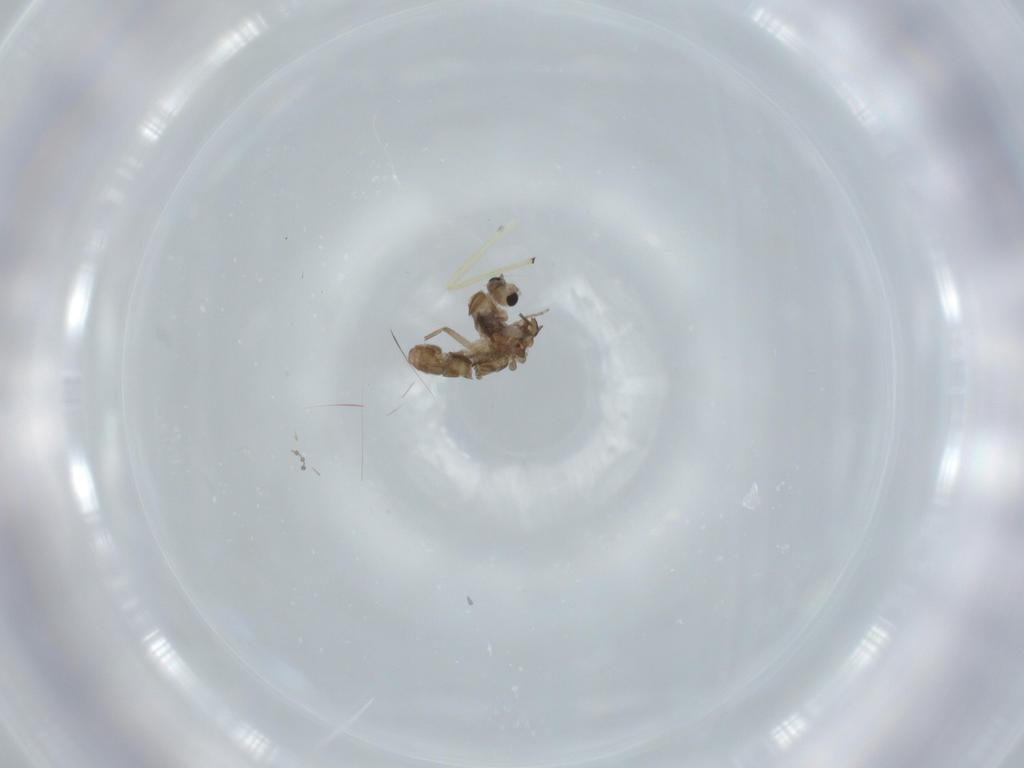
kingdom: Animalia
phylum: Arthropoda
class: Insecta
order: Diptera
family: Chironomidae
